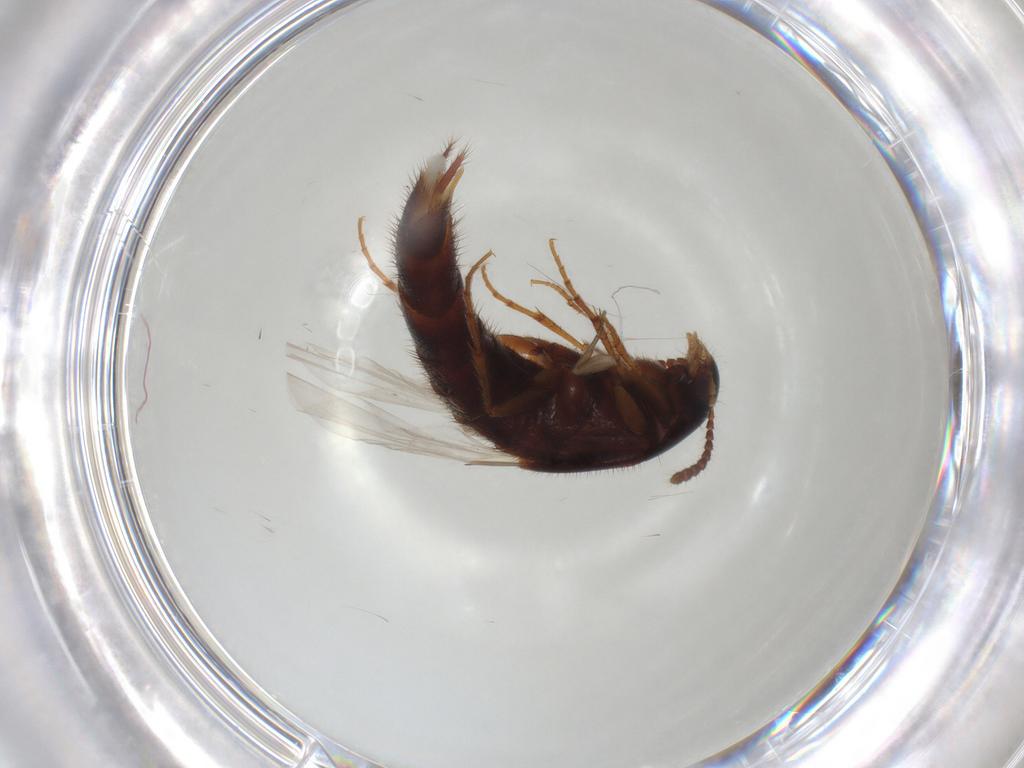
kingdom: Animalia
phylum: Arthropoda
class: Insecta
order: Coleoptera
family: Staphylinidae
